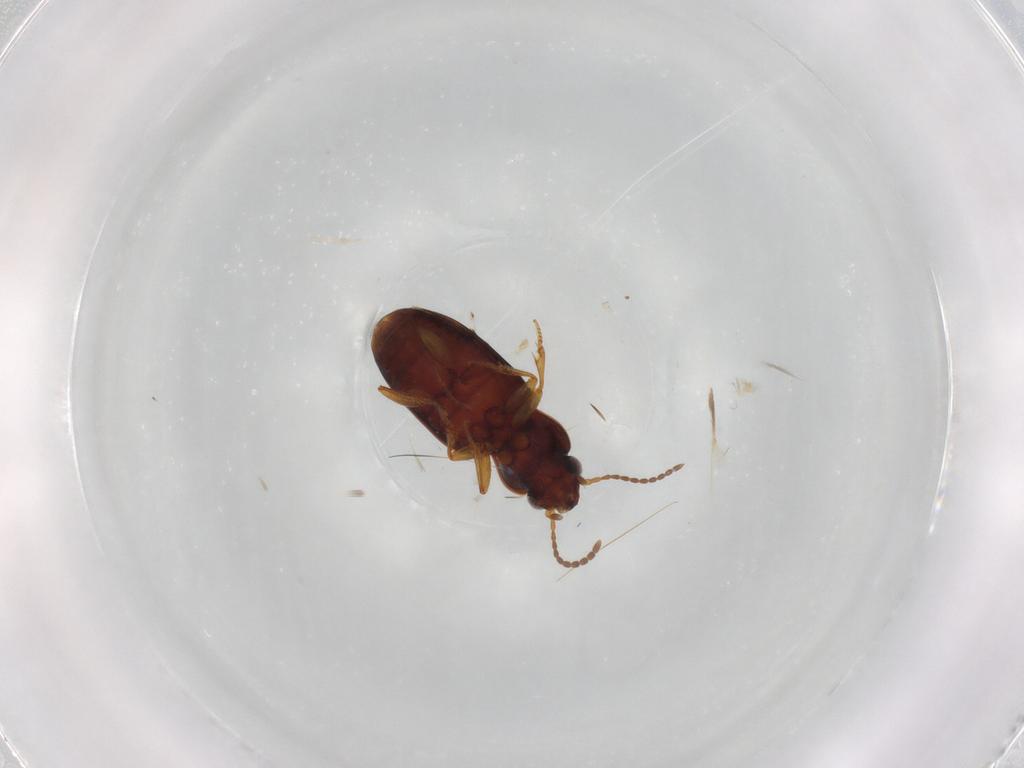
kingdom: Animalia
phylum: Arthropoda
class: Insecta
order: Coleoptera
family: Carabidae
